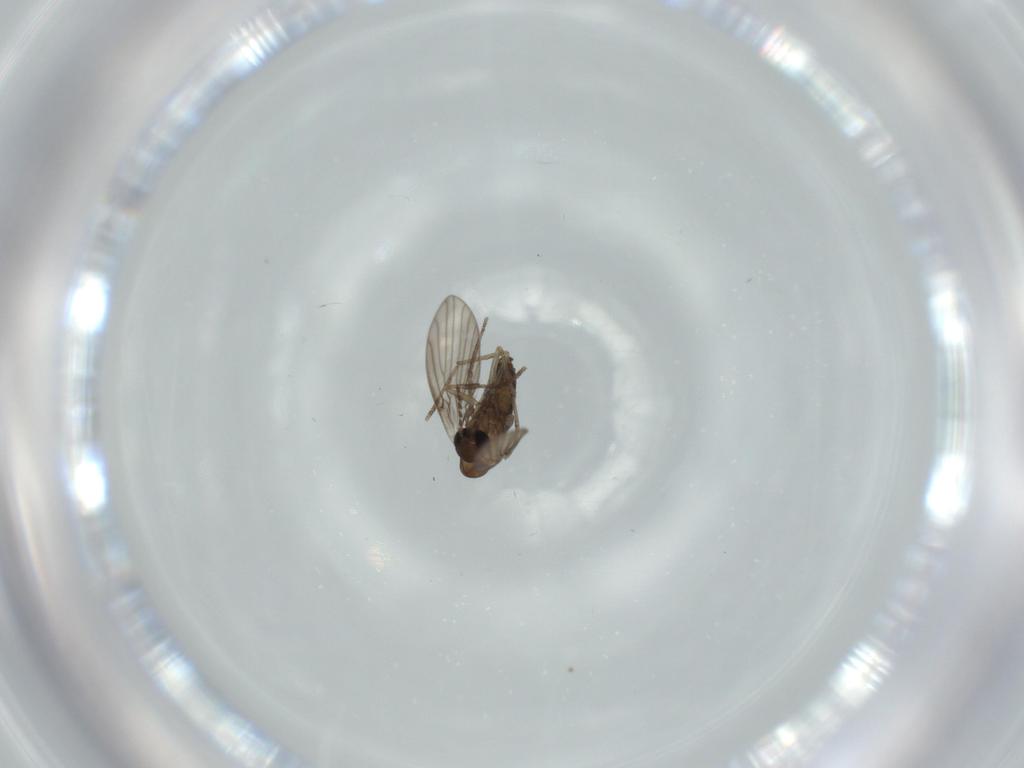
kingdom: Animalia
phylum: Arthropoda
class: Insecta
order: Diptera
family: Psychodidae
